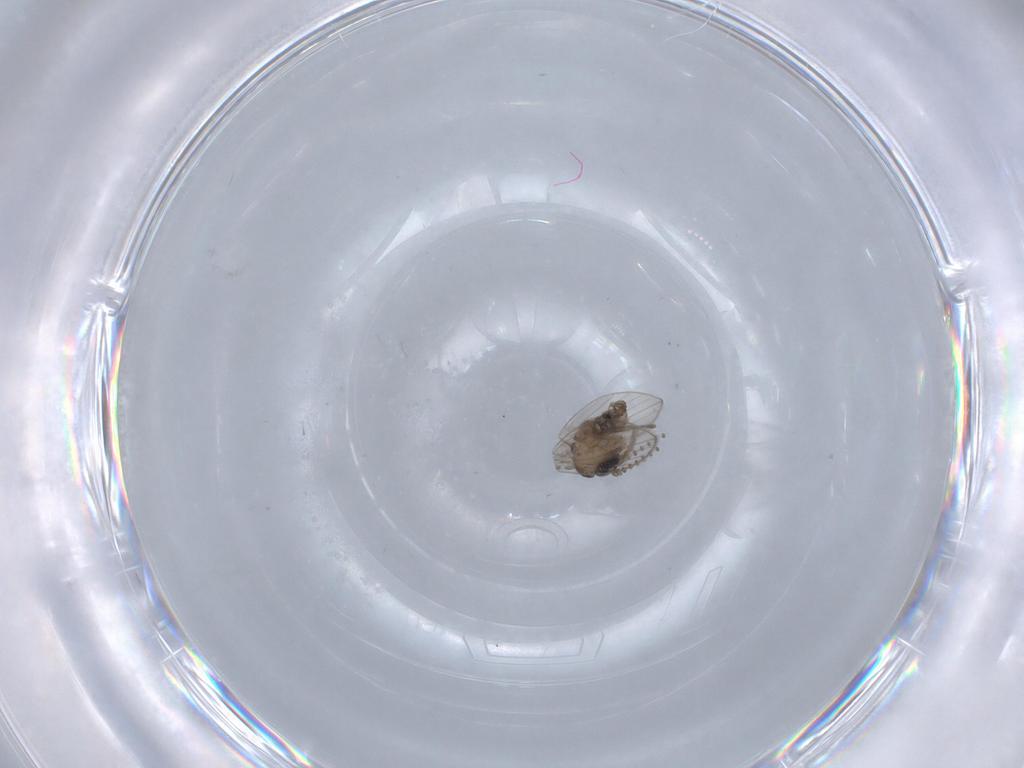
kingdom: Animalia
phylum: Arthropoda
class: Insecta
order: Diptera
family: Psychodidae
